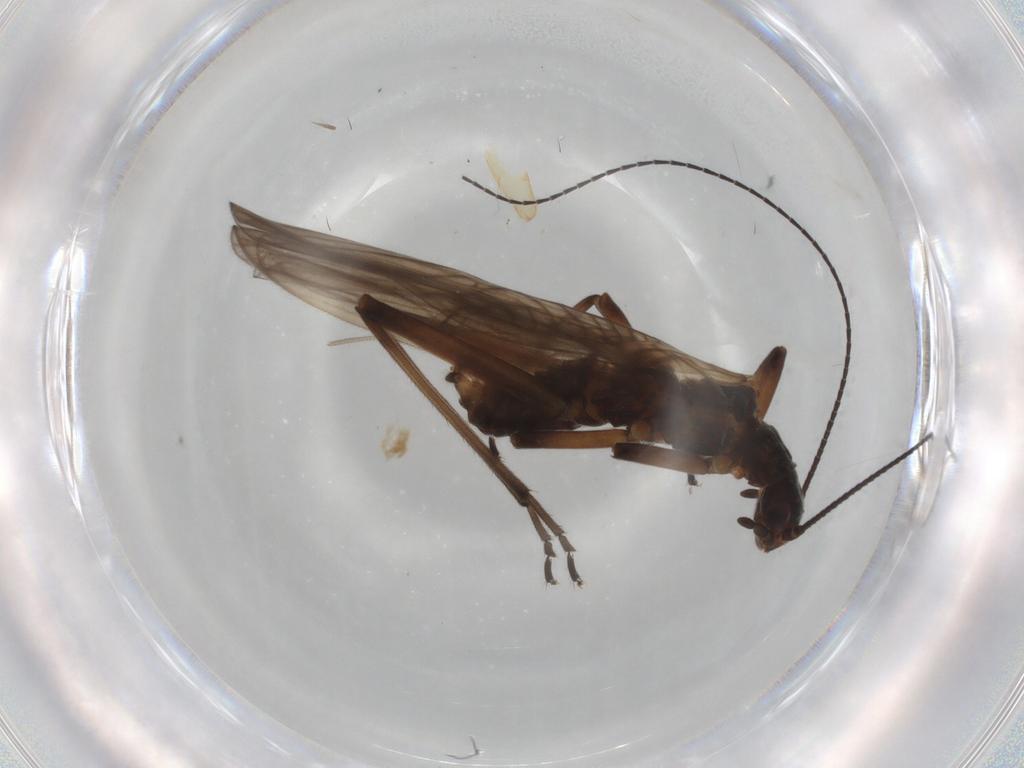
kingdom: Animalia
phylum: Arthropoda
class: Insecta
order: Plecoptera
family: Notonemouridae
